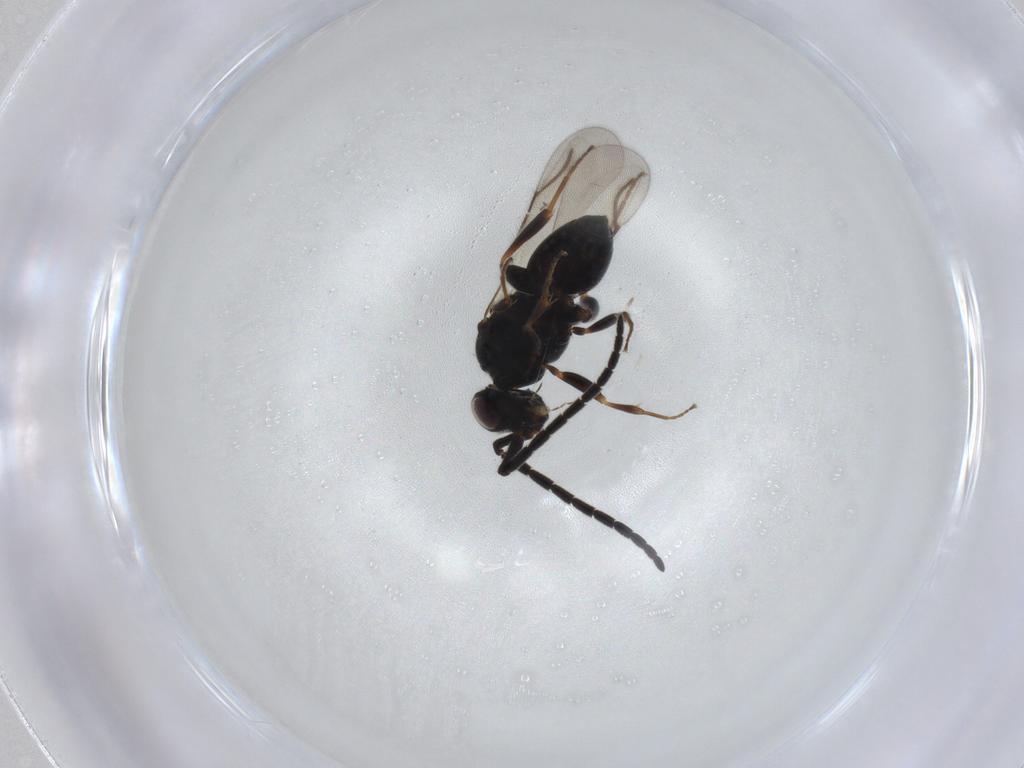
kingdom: Animalia
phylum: Arthropoda
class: Insecta
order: Hymenoptera
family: Ceraphronidae
